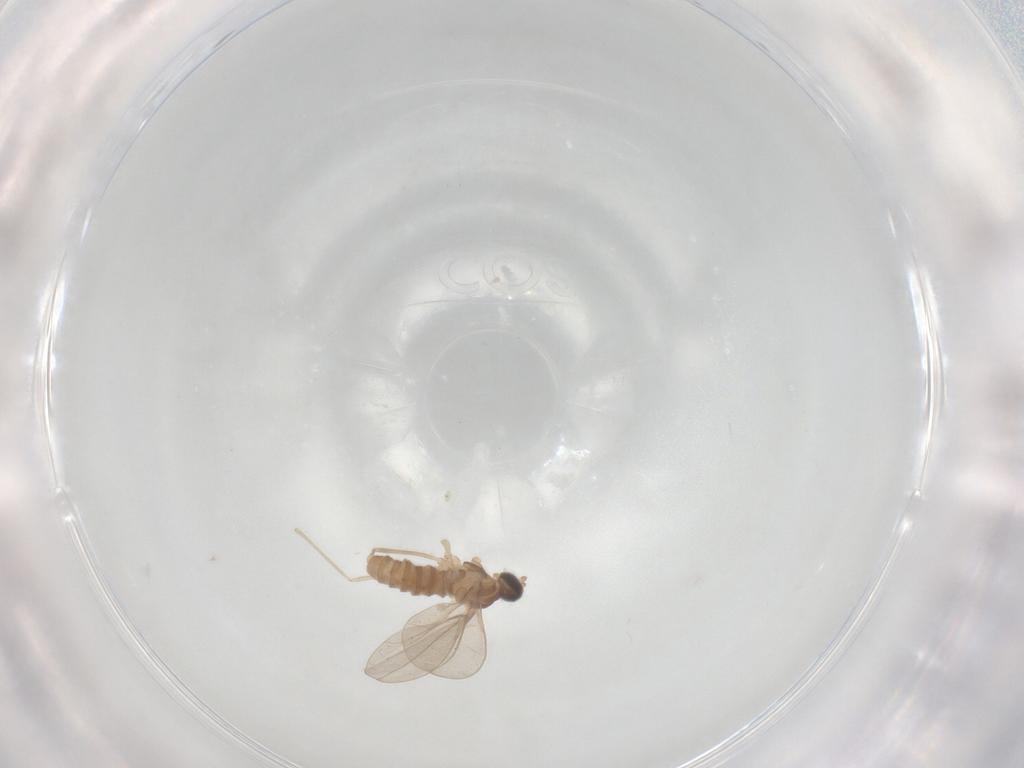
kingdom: Animalia
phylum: Arthropoda
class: Insecta
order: Diptera
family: Cecidomyiidae
